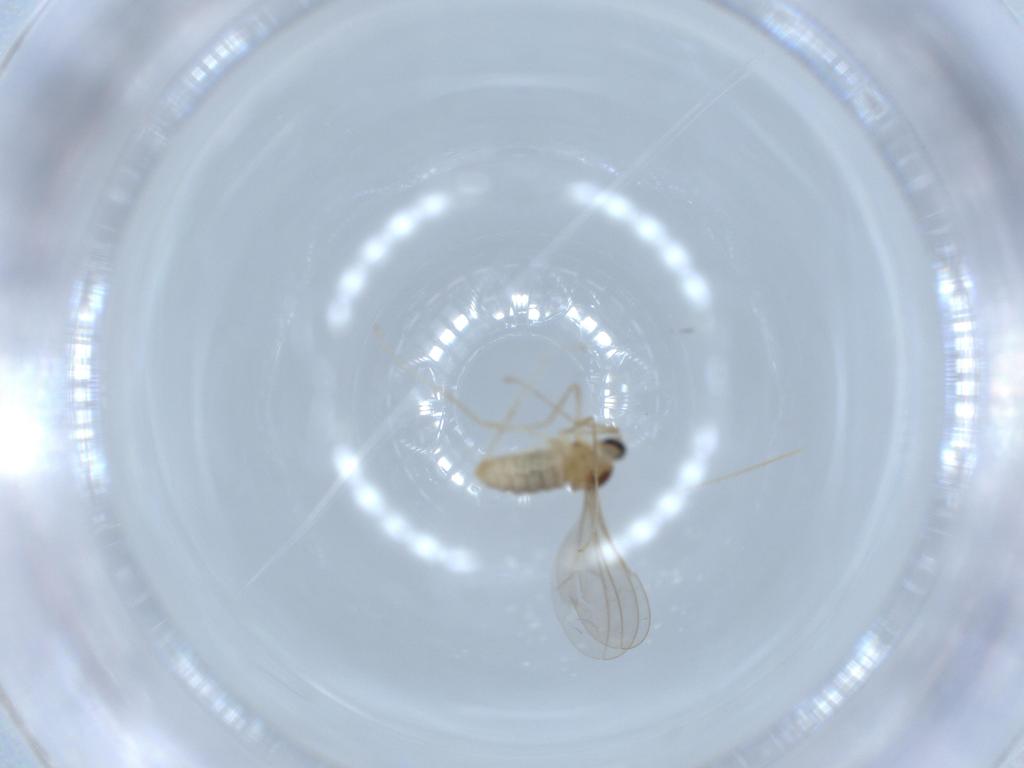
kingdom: Animalia
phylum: Arthropoda
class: Insecta
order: Diptera
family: Cecidomyiidae
